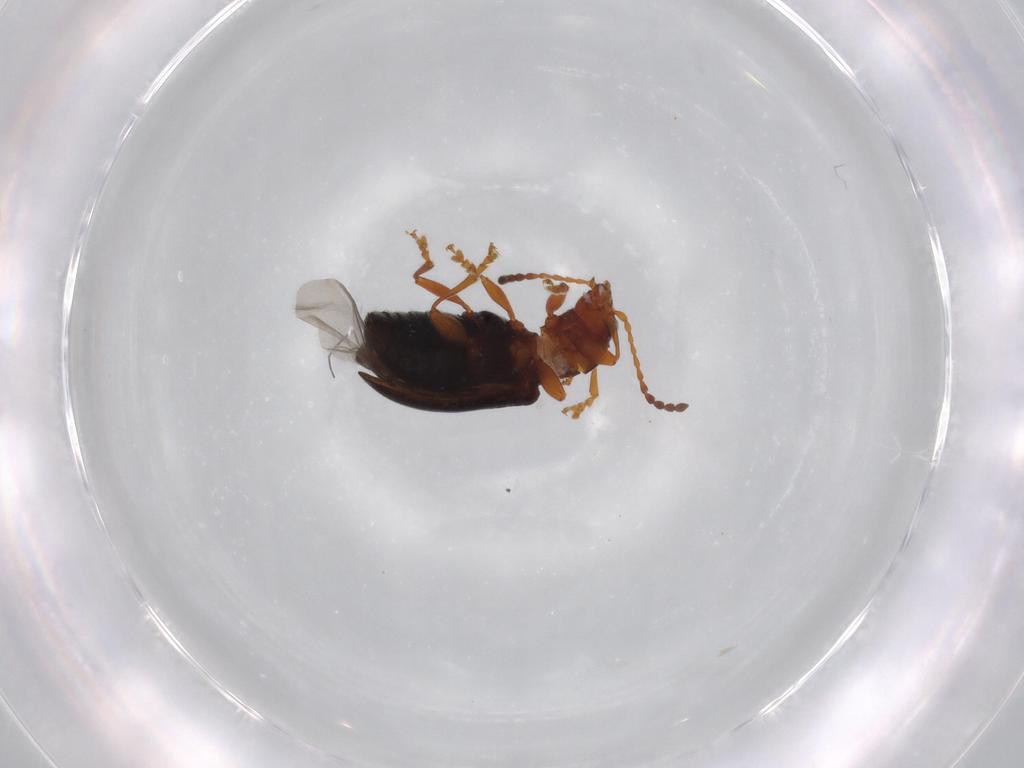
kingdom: Animalia
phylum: Arthropoda
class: Insecta
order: Coleoptera
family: Chrysomelidae
